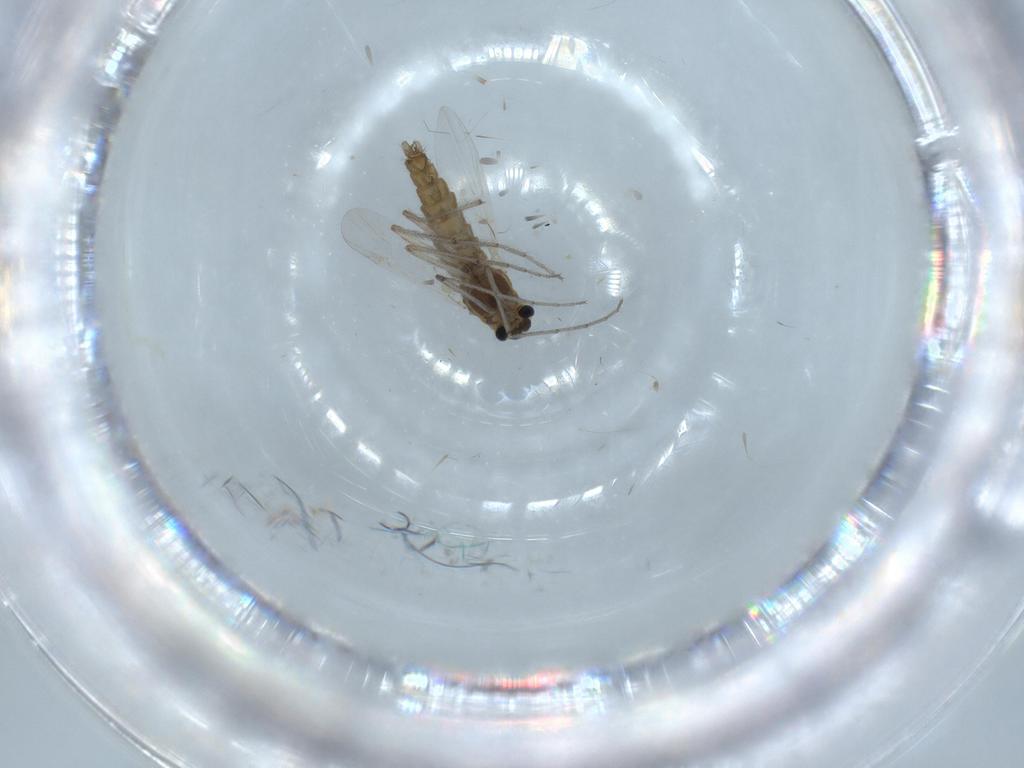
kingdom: Animalia
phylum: Arthropoda
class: Insecta
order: Diptera
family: Chironomidae
